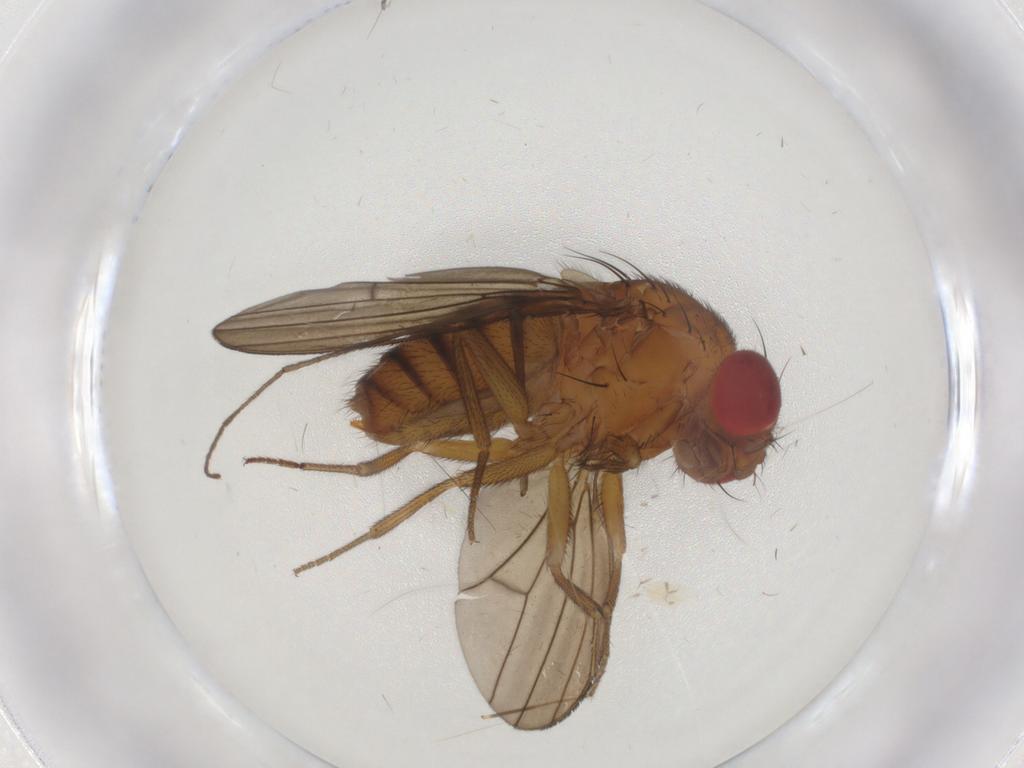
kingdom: Animalia
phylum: Arthropoda
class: Insecta
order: Diptera
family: Drosophilidae
